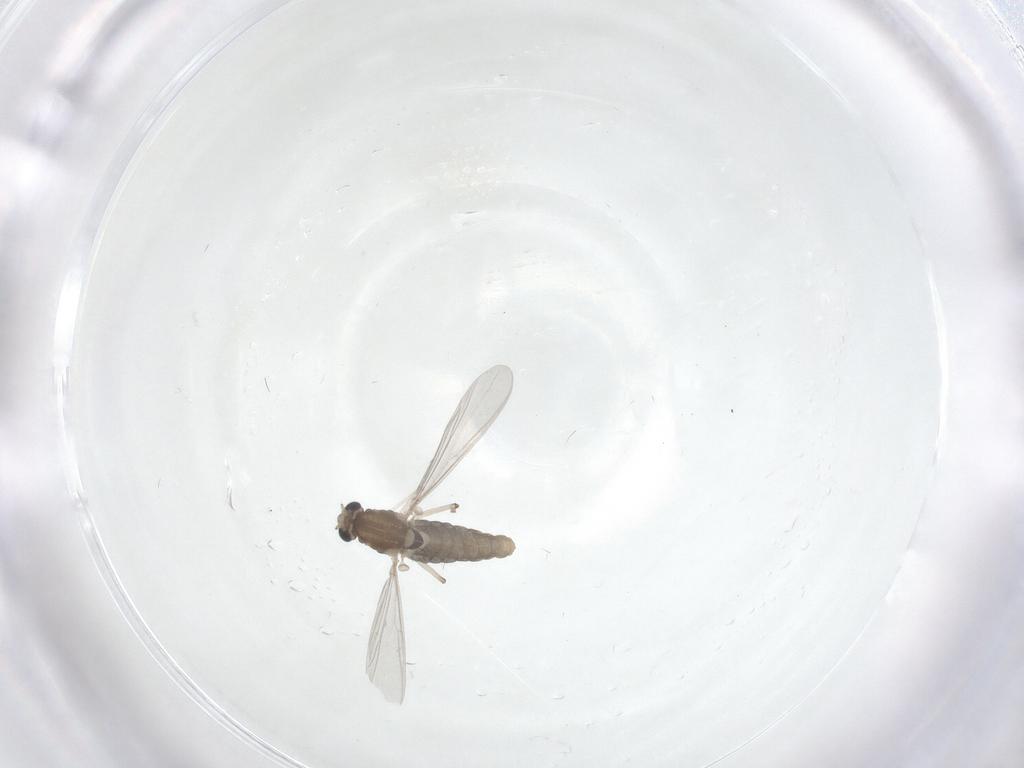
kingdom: Animalia
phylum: Arthropoda
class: Insecta
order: Diptera
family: Chironomidae
